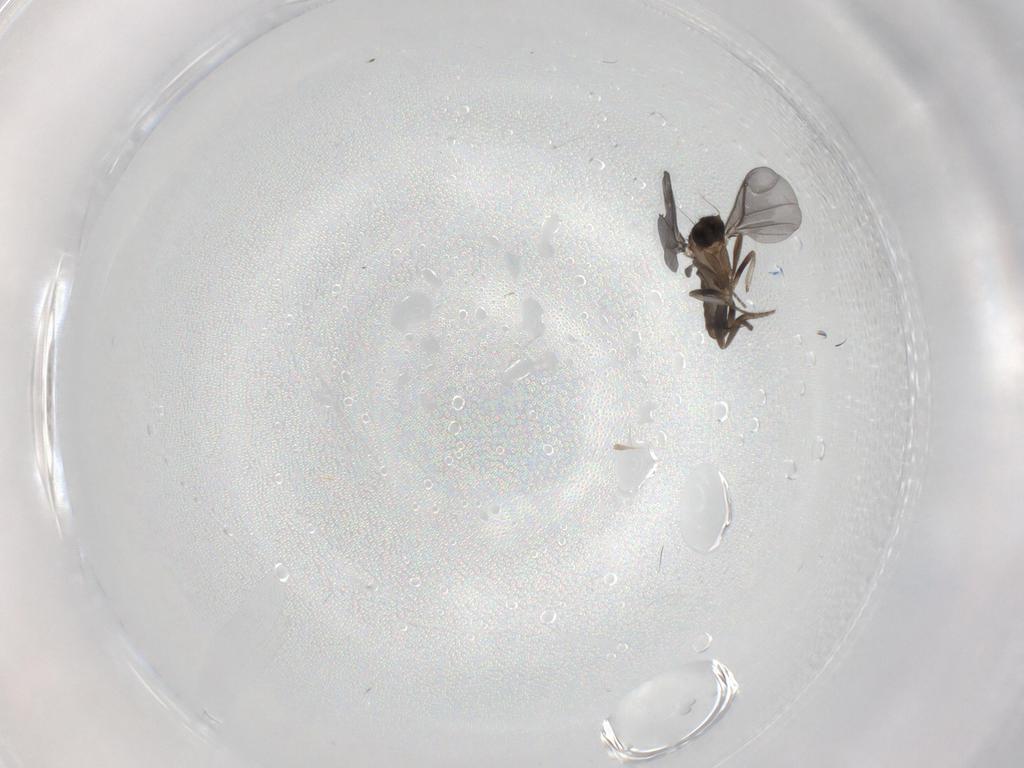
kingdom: Animalia
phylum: Arthropoda
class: Insecta
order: Diptera
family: Phoridae
